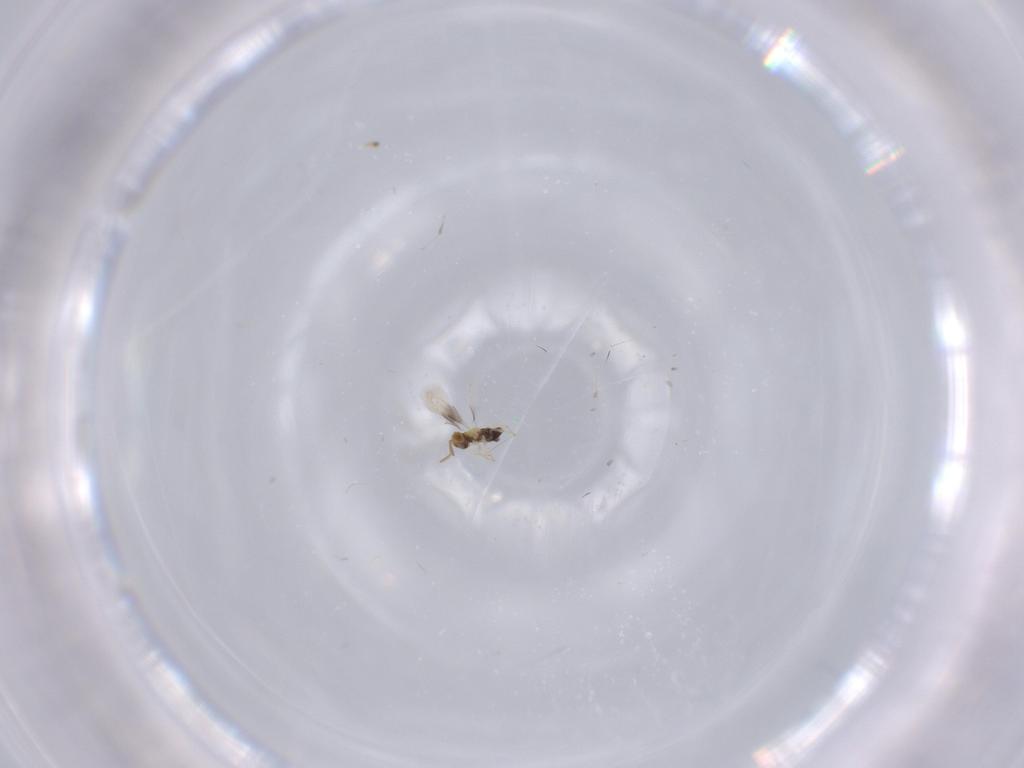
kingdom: Animalia
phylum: Arthropoda
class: Insecta
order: Hymenoptera
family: Aphelinidae
